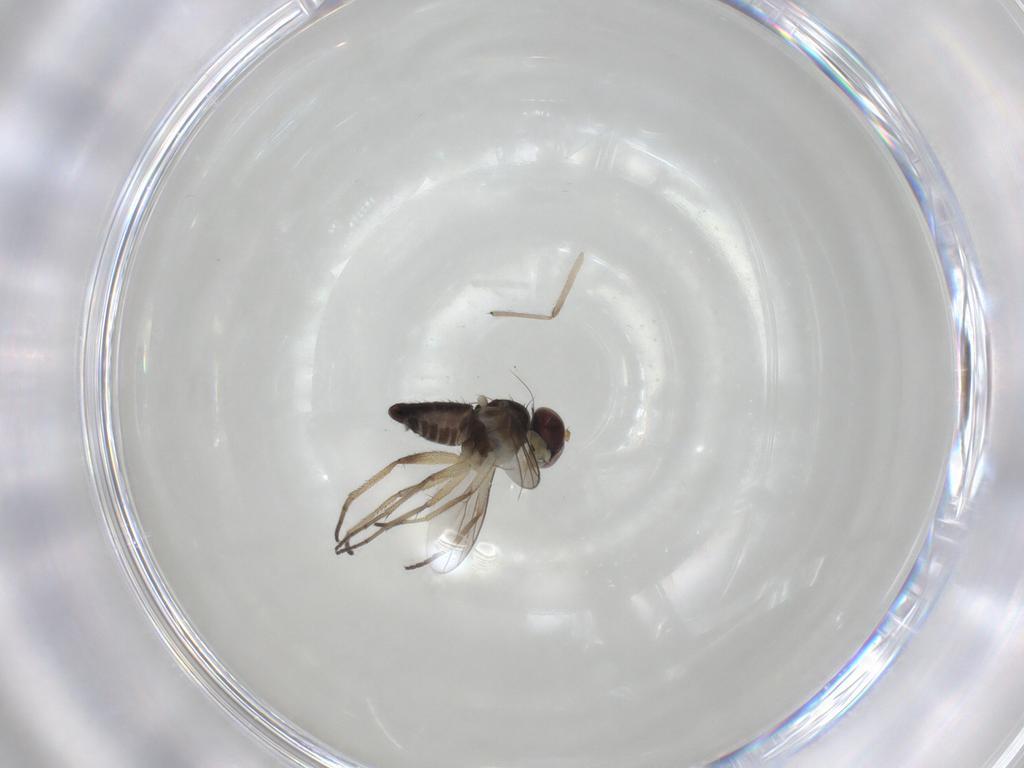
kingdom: Animalia
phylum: Arthropoda
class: Insecta
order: Diptera
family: Dolichopodidae
